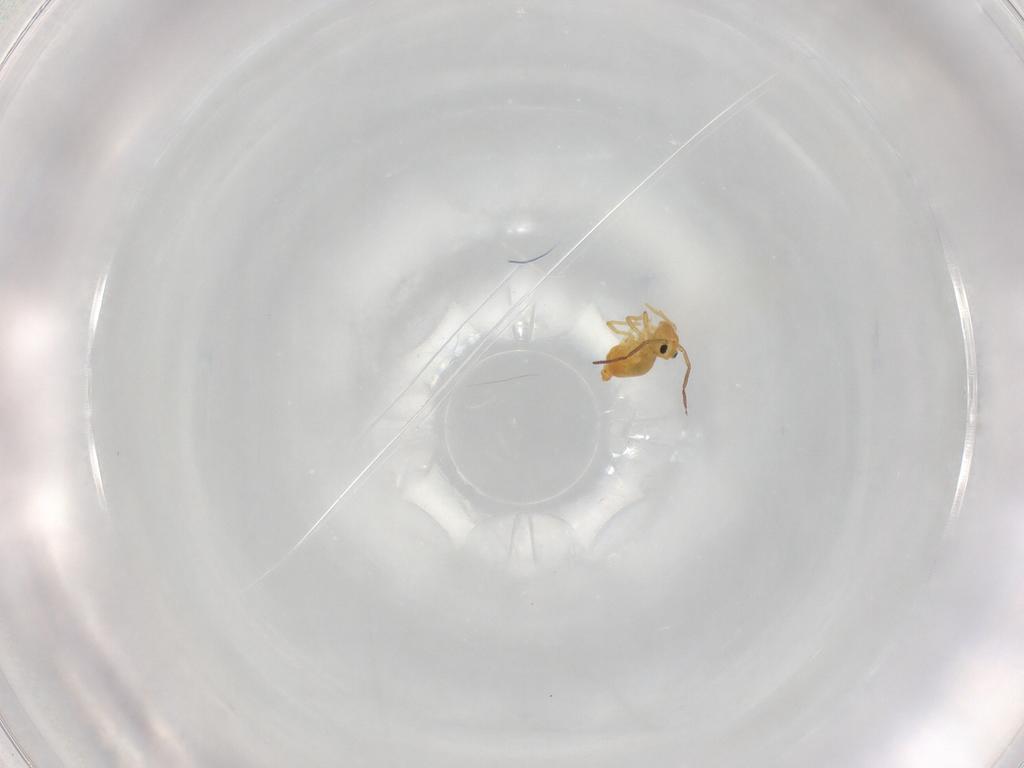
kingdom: Animalia
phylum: Arthropoda
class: Collembola
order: Symphypleona
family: Bourletiellidae
